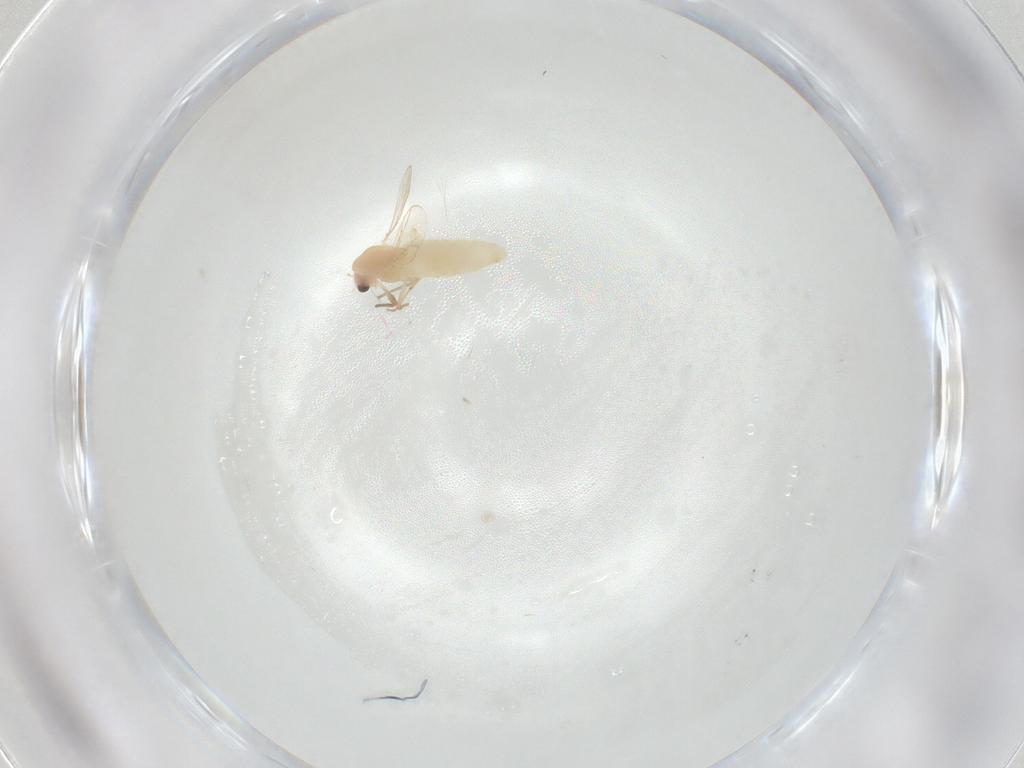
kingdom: Animalia
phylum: Arthropoda
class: Insecta
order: Diptera
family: Chironomidae
